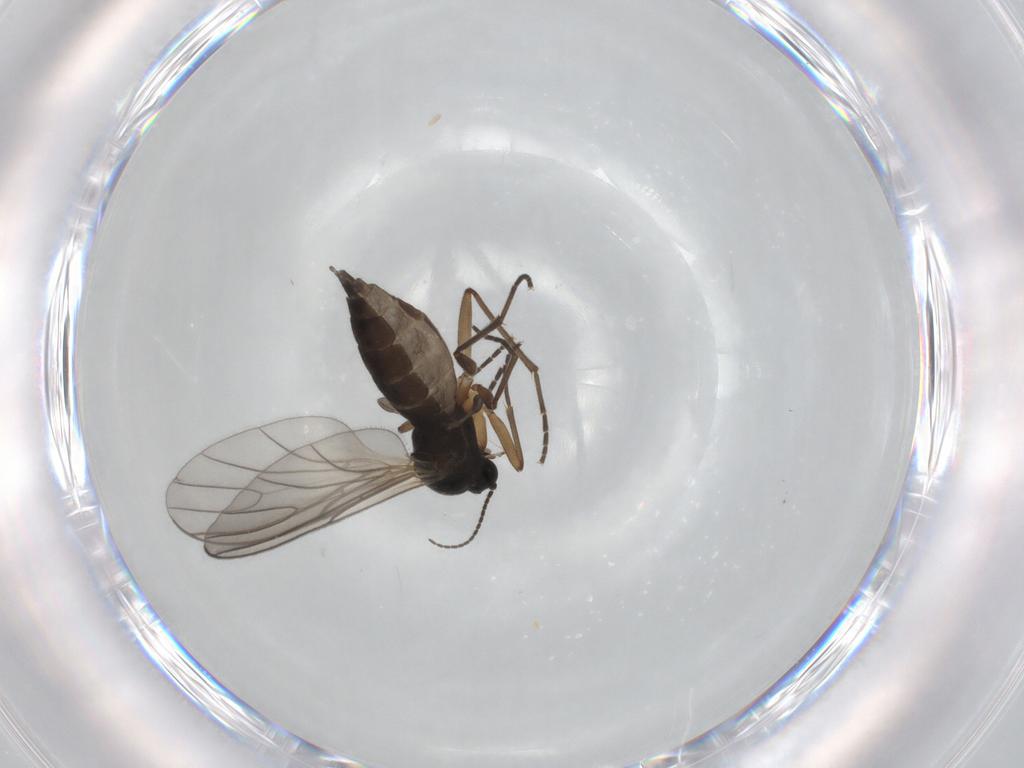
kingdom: Animalia
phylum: Arthropoda
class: Insecta
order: Diptera
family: Sciaridae
